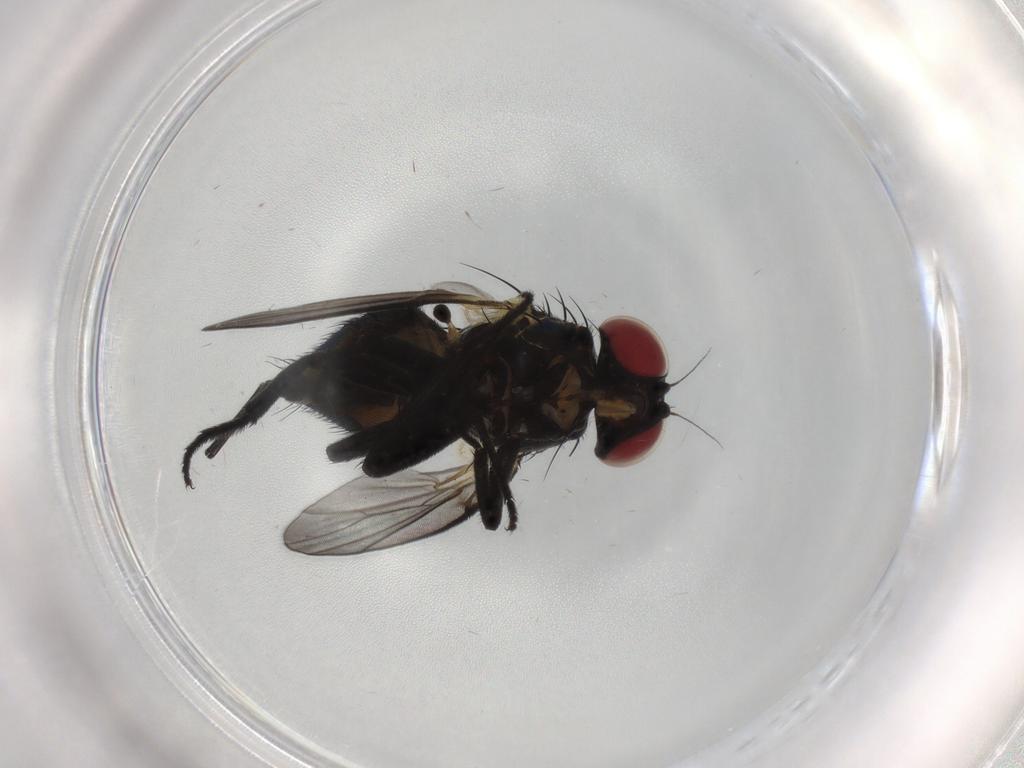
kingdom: Animalia
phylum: Arthropoda
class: Insecta
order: Diptera
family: Agromyzidae
